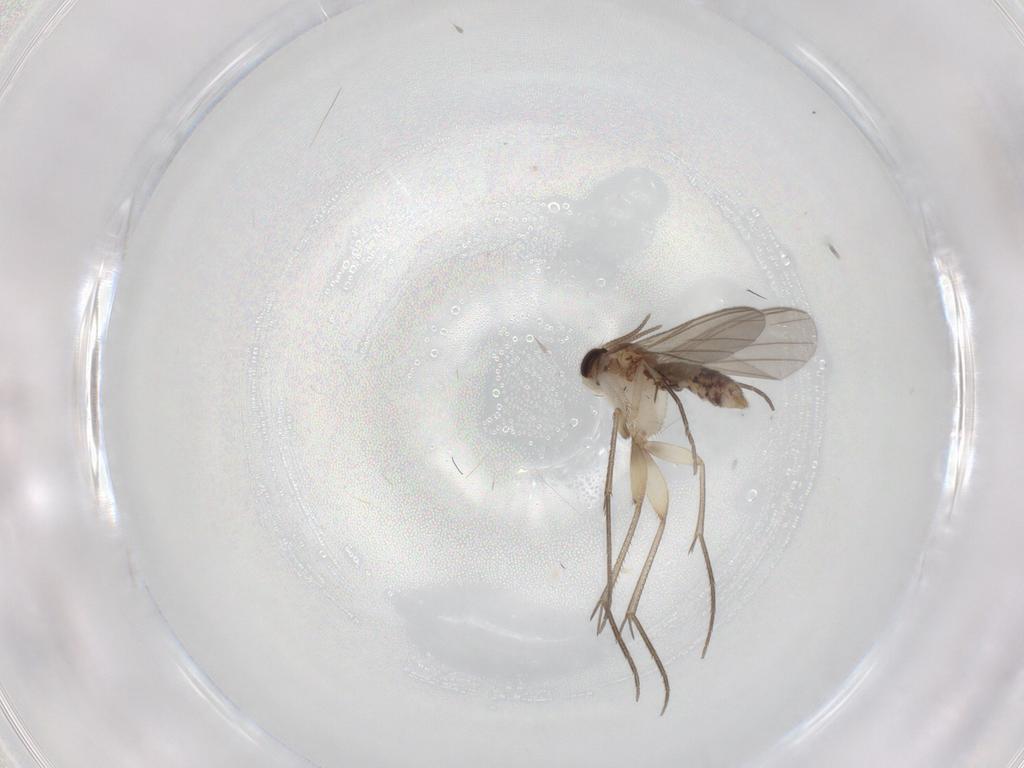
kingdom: Animalia
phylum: Arthropoda
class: Insecta
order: Diptera
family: Mycetophilidae
